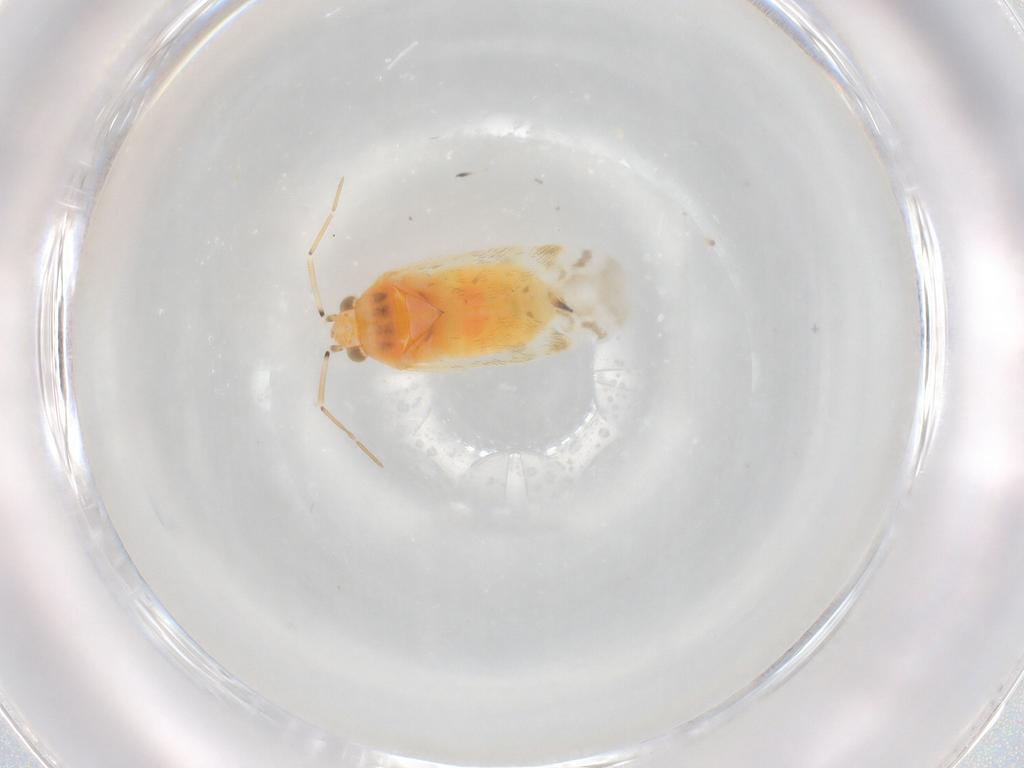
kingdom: Animalia
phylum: Arthropoda
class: Insecta
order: Hemiptera
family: Miridae
